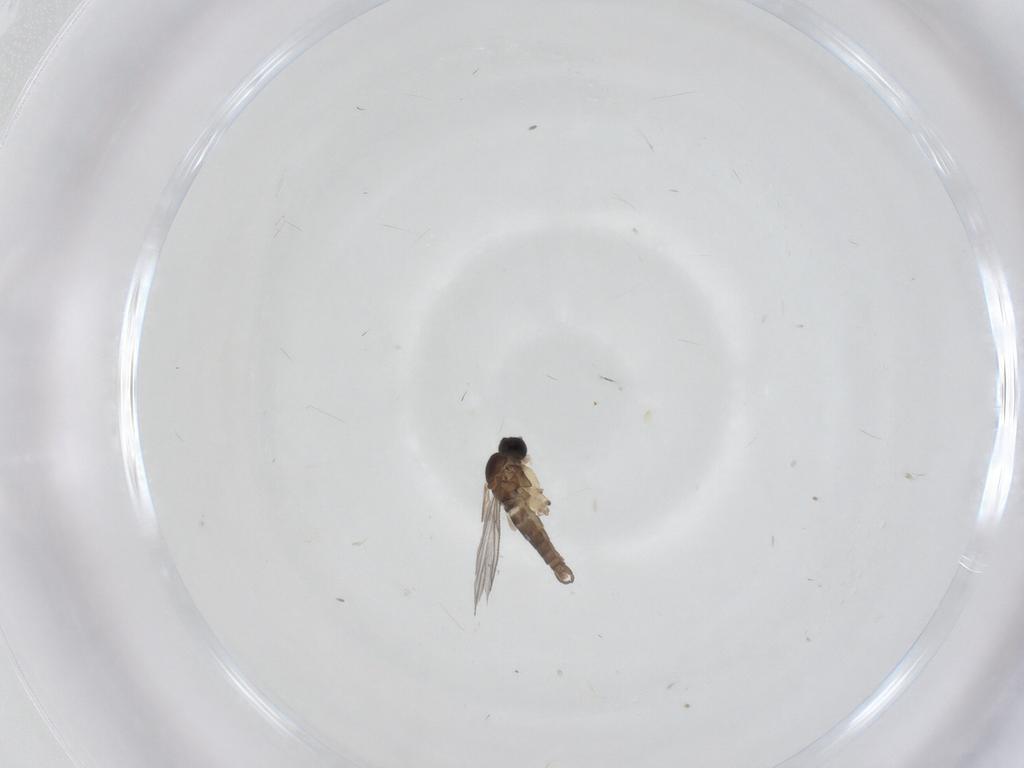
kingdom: Animalia
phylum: Arthropoda
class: Insecta
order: Diptera
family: Sciaridae
